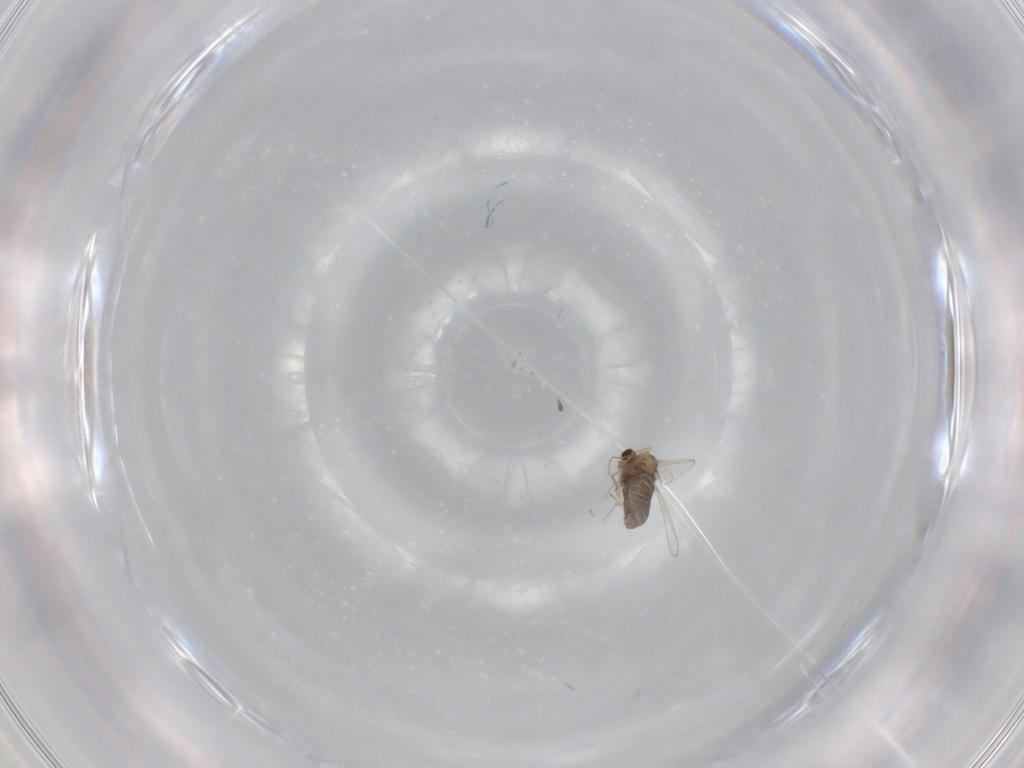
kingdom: Animalia
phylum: Arthropoda
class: Insecta
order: Diptera
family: Chironomidae
